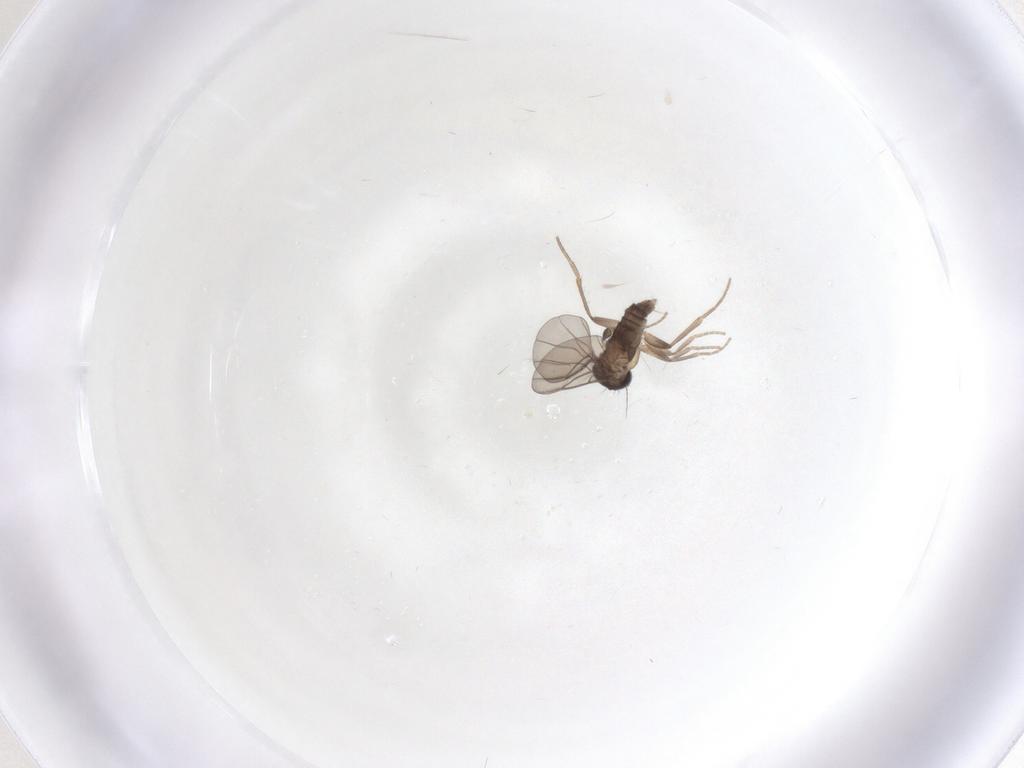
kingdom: Animalia
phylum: Arthropoda
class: Insecta
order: Diptera
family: Phoridae
